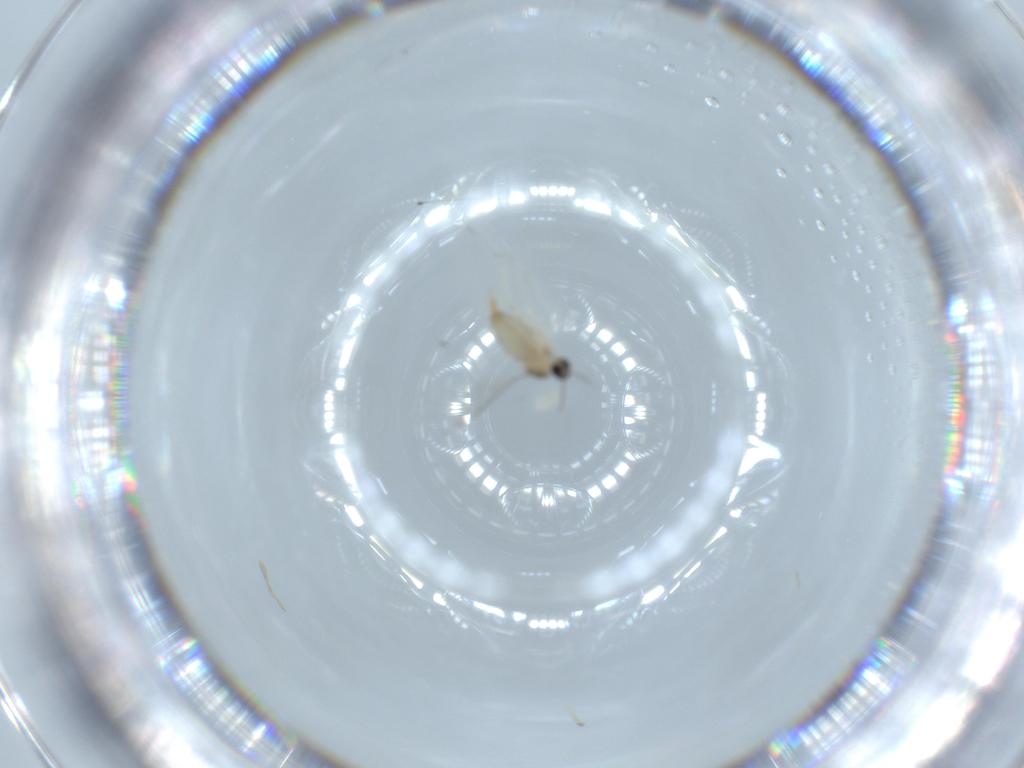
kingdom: Animalia
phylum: Arthropoda
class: Insecta
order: Diptera
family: Cecidomyiidae
